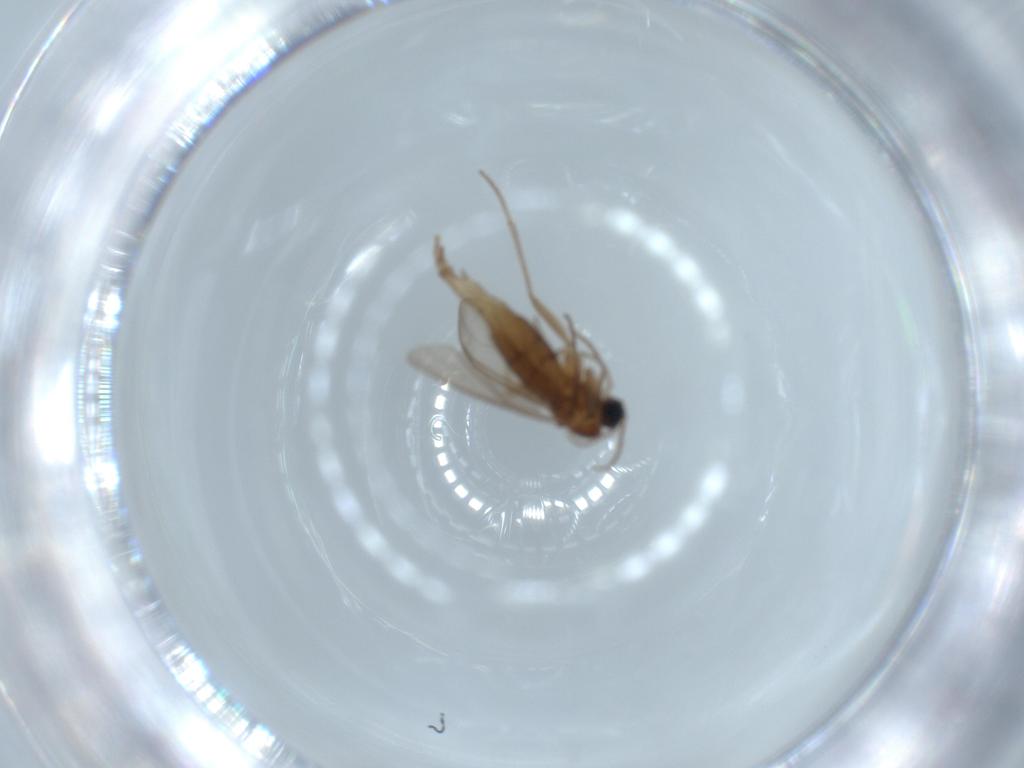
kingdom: Animalia
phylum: Arthropoda
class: Insecta
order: Diptera
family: Sciaridae
